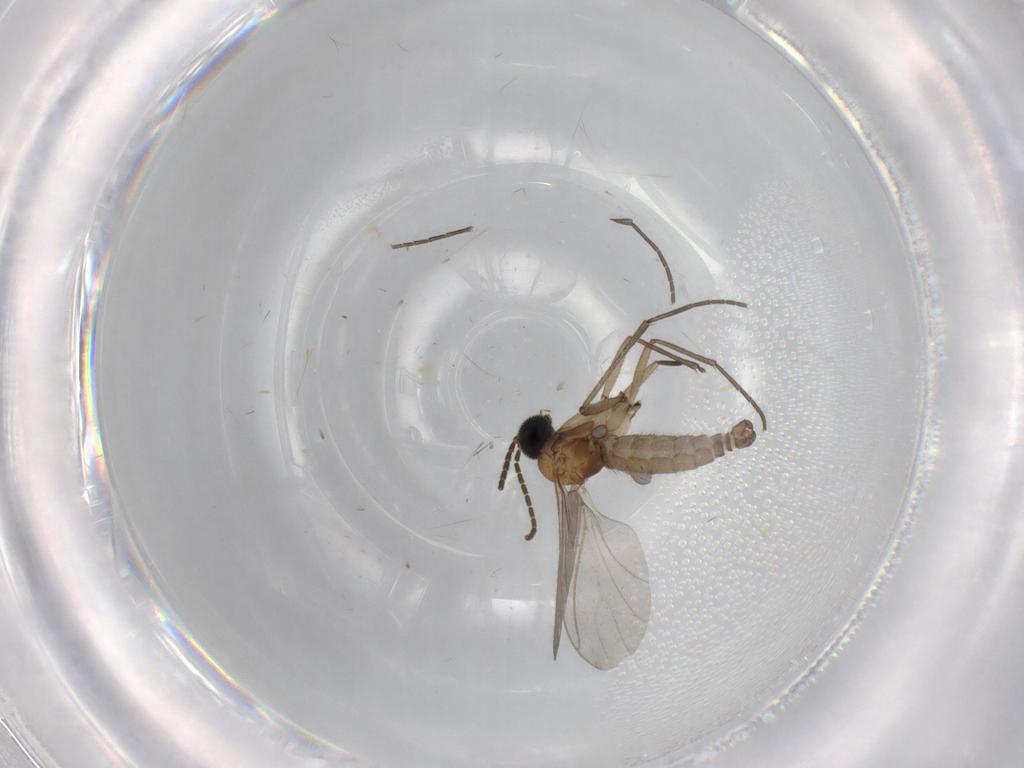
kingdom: Animalia
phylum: Arthropoda
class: Insecta
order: Diptera
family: Sciaridae
